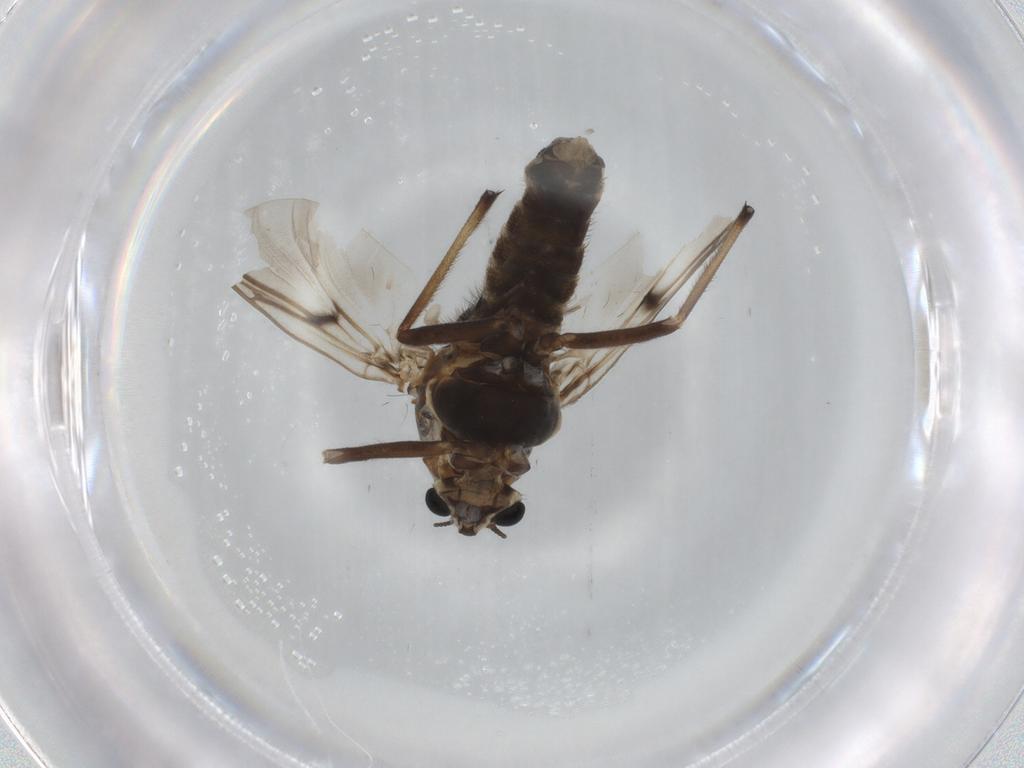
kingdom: Animalia
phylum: Arthropoda
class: Insecta
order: Diptera
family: Chironomidae
